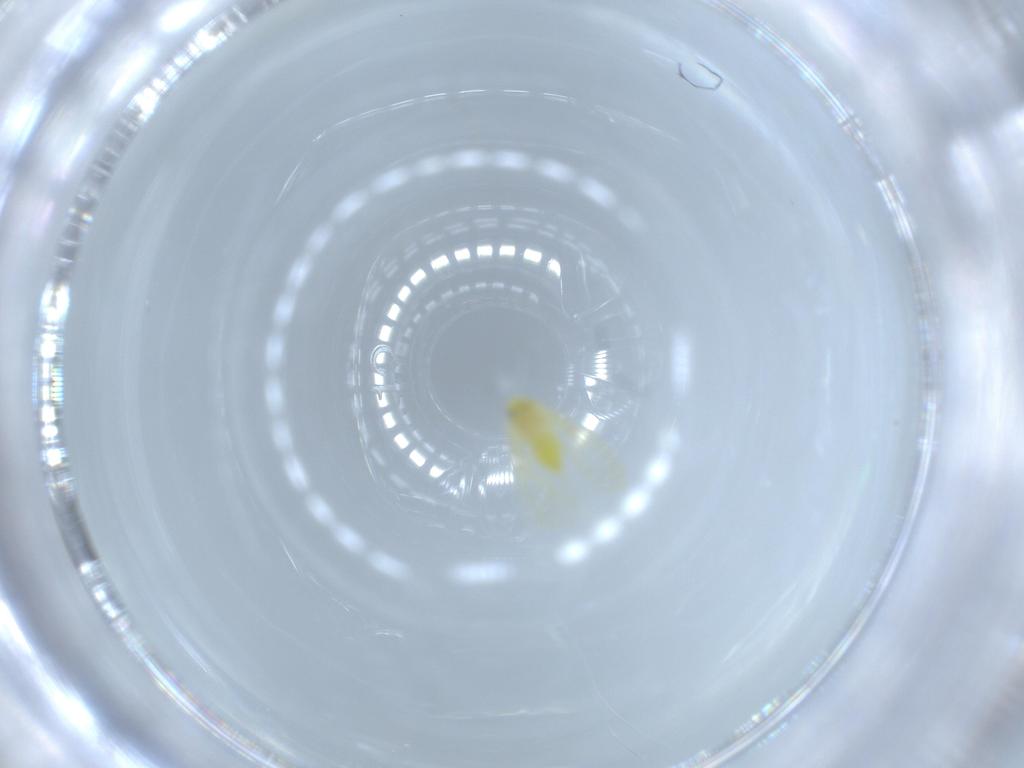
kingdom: Animalia
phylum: Arthropoda
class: Insecta
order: Hemiptera
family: Aleyrodidae
